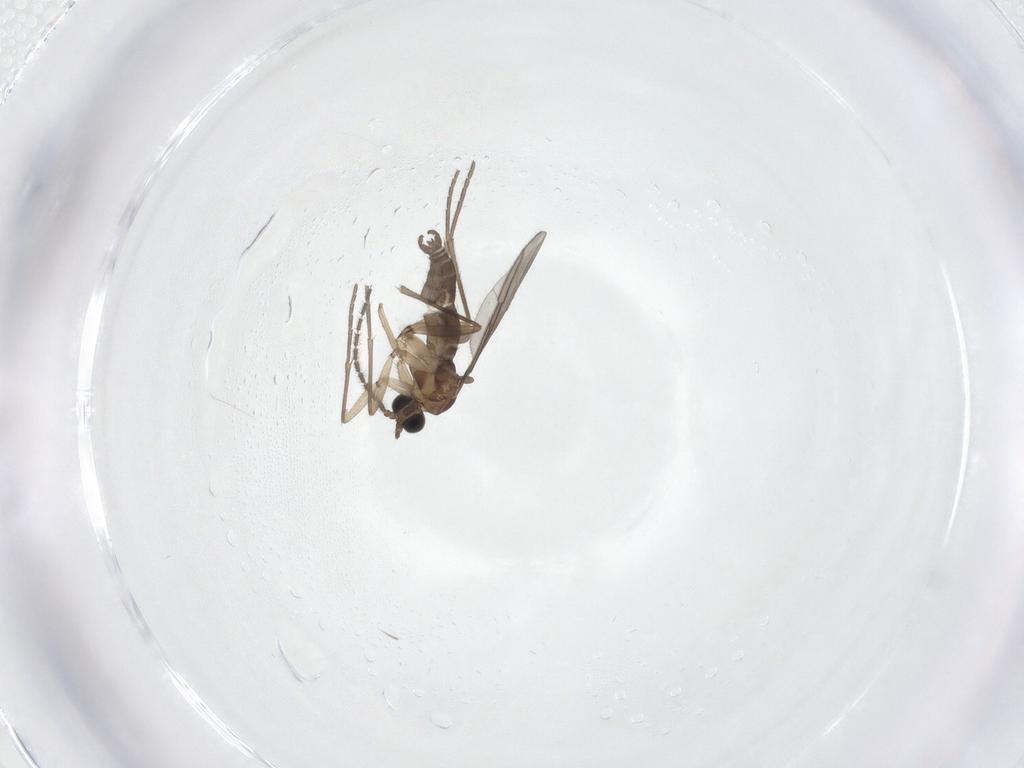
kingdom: Animalia
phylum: Arthropoda
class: Insecta
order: Diptera
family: Sciaridae
